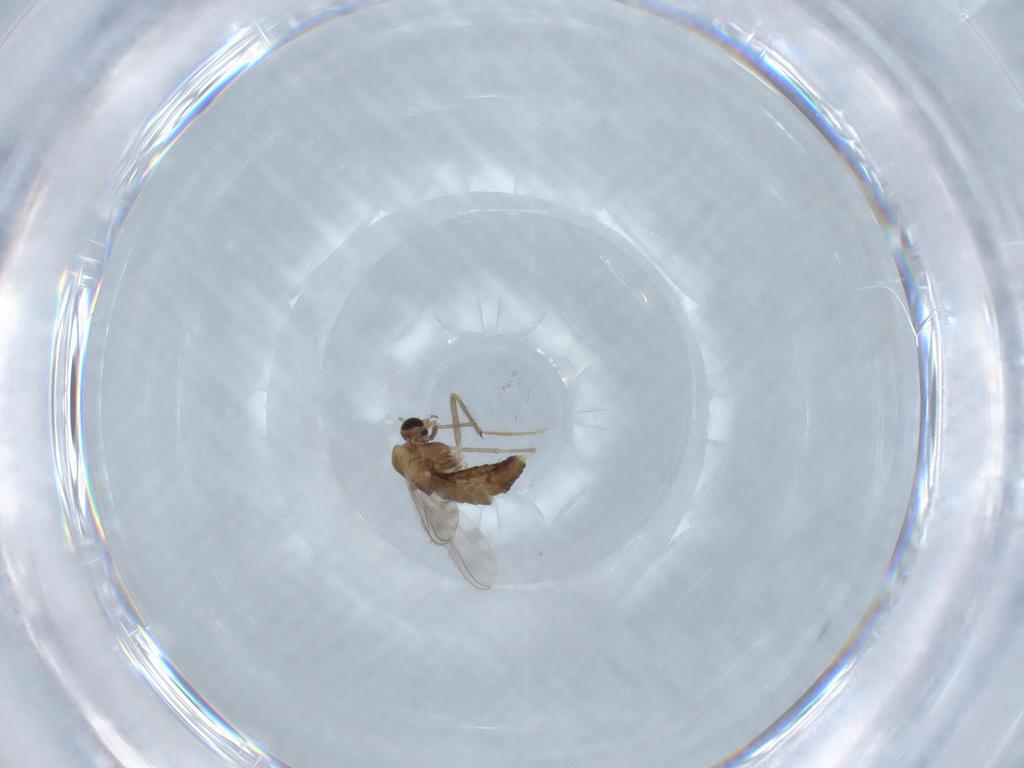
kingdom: Animalia
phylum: Arthropoda
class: Insecta
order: Diptera
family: Chironomidae
